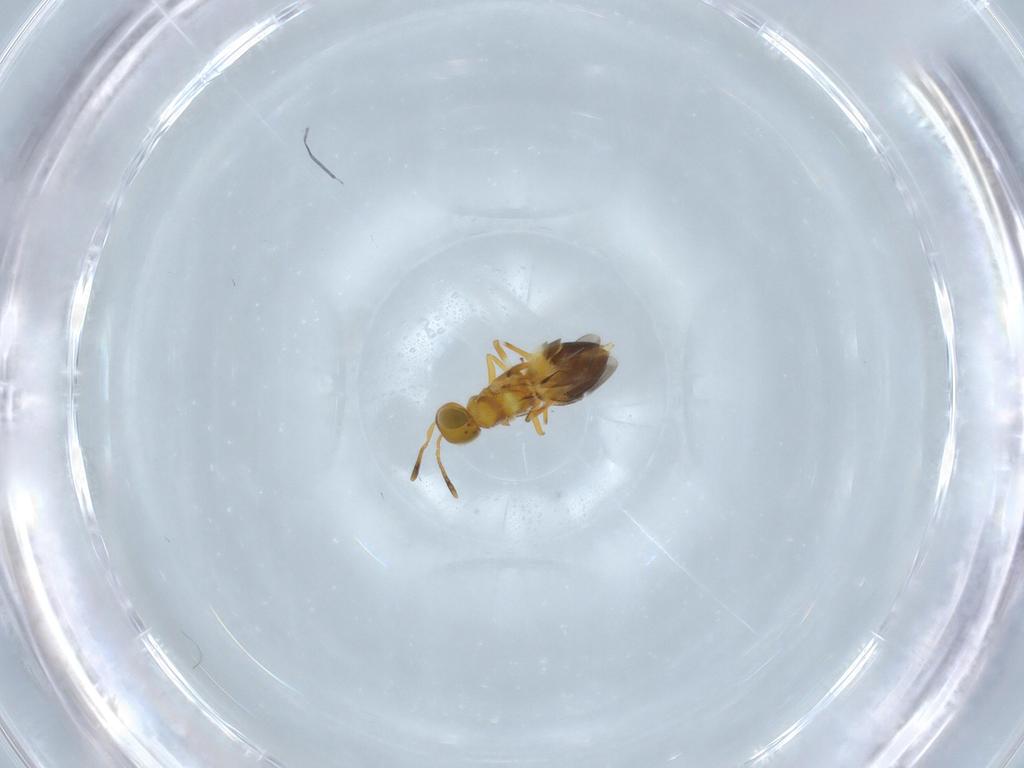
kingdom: Animalia
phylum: Arthropoda
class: Insecta
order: Hymenoptera
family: Encyrtidae
